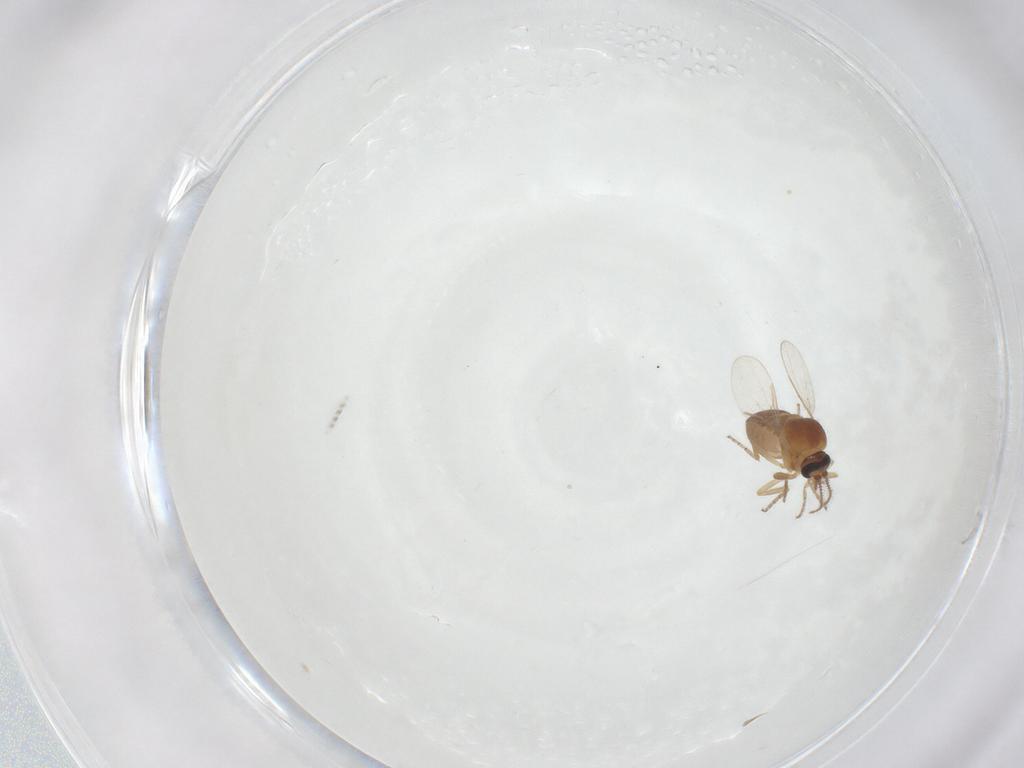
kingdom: Animalia
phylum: Arthropoda
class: Insecta
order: Diptera
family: Ceratopogonidae
